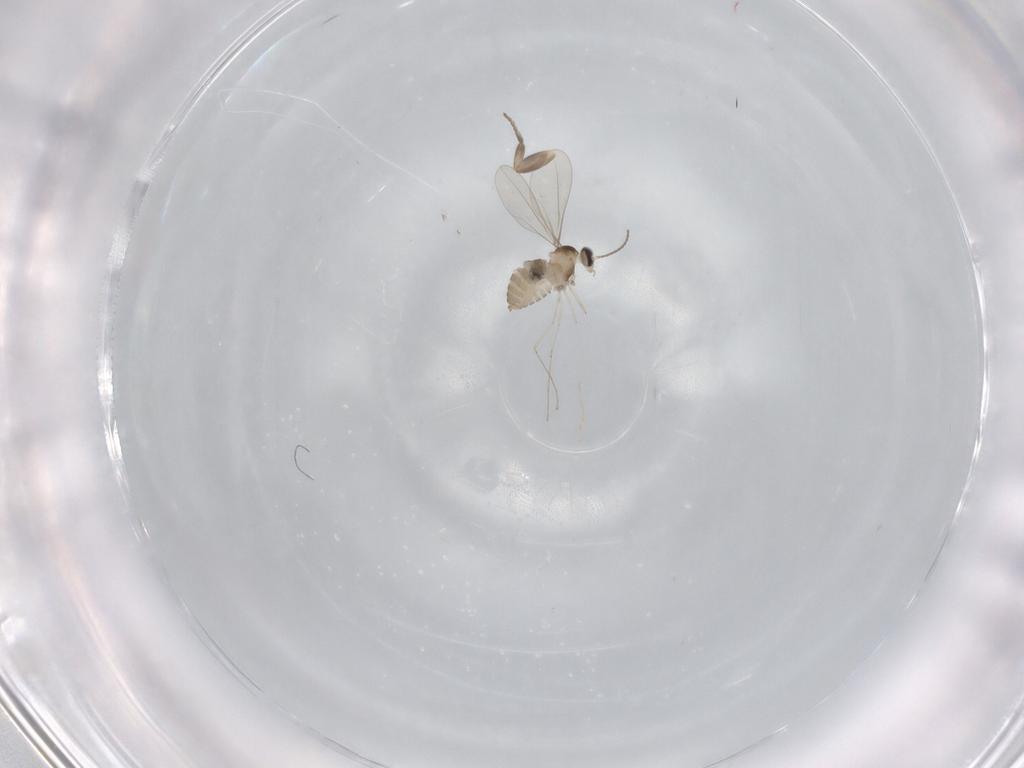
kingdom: Animalia
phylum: Arthropoda
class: Insecta
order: Diptera
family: Cecidomyiidae
